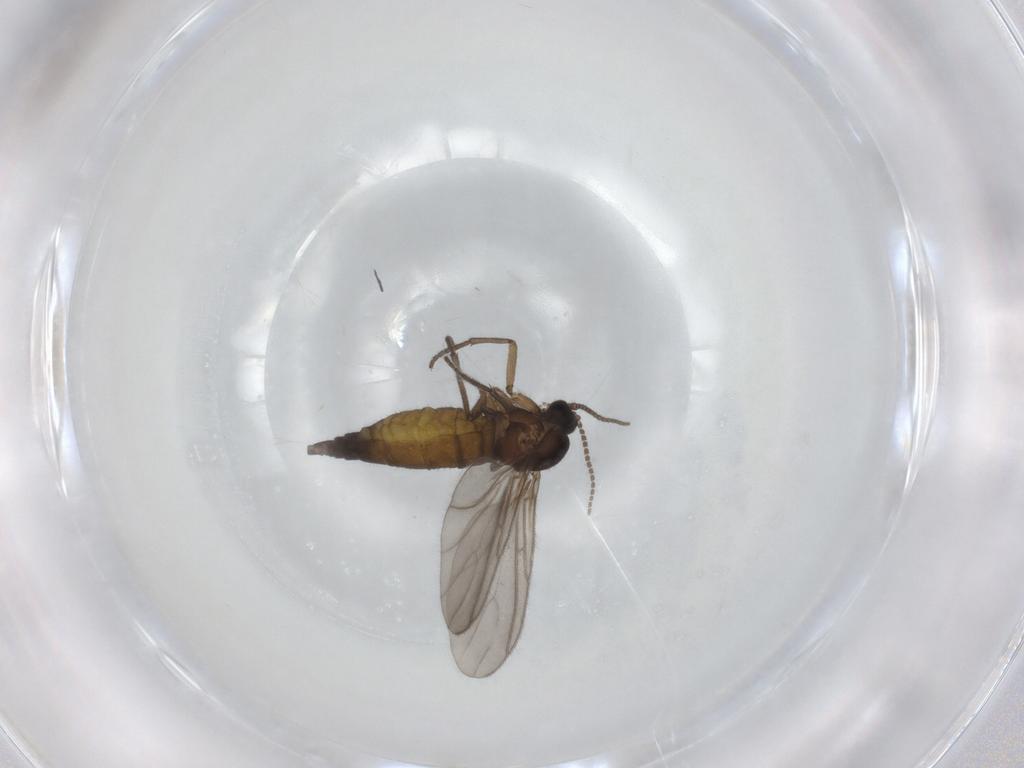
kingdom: Animalia
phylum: Arthropoda
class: Insecta
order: Diptera
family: Sciaridae
